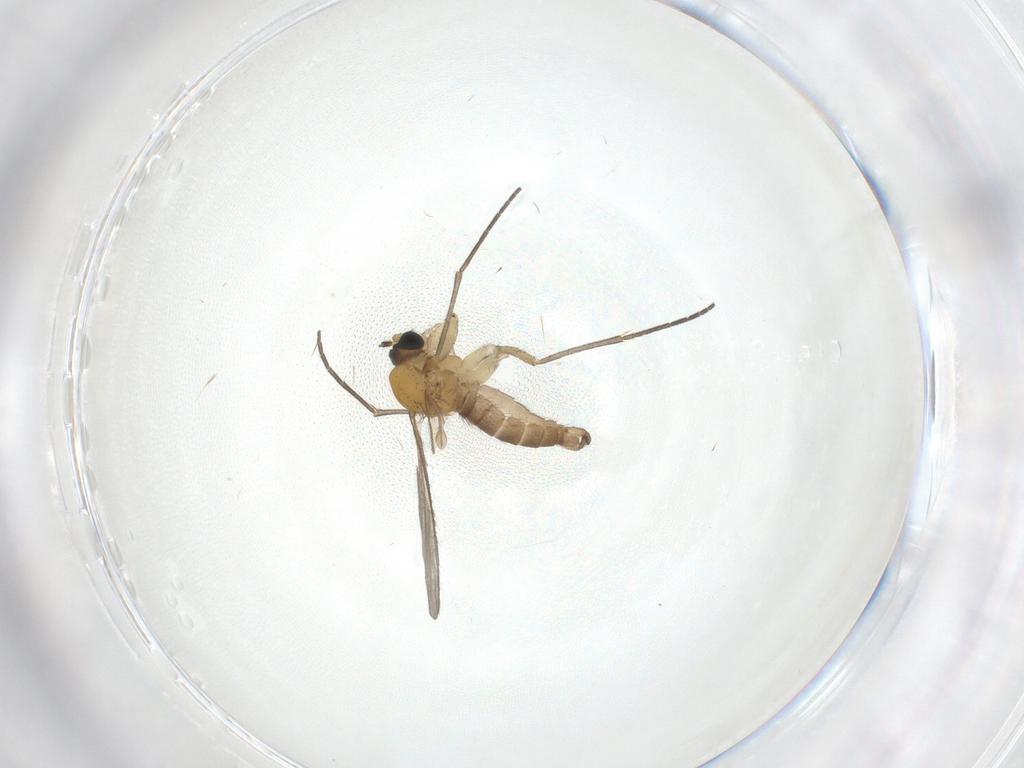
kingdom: Animalia
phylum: Arthropoda
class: Insecta
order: Diptera
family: Sciaridae
